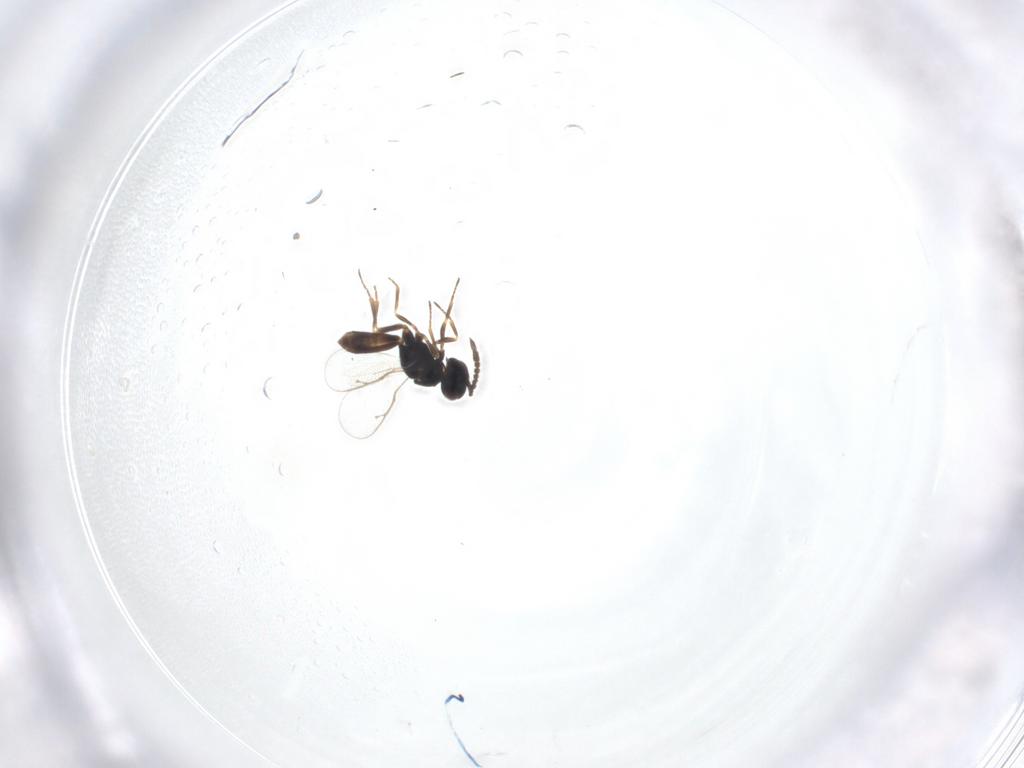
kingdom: Animalia
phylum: Arthropoda
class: Insecta
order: Hymenoptera
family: Pteromalidae
